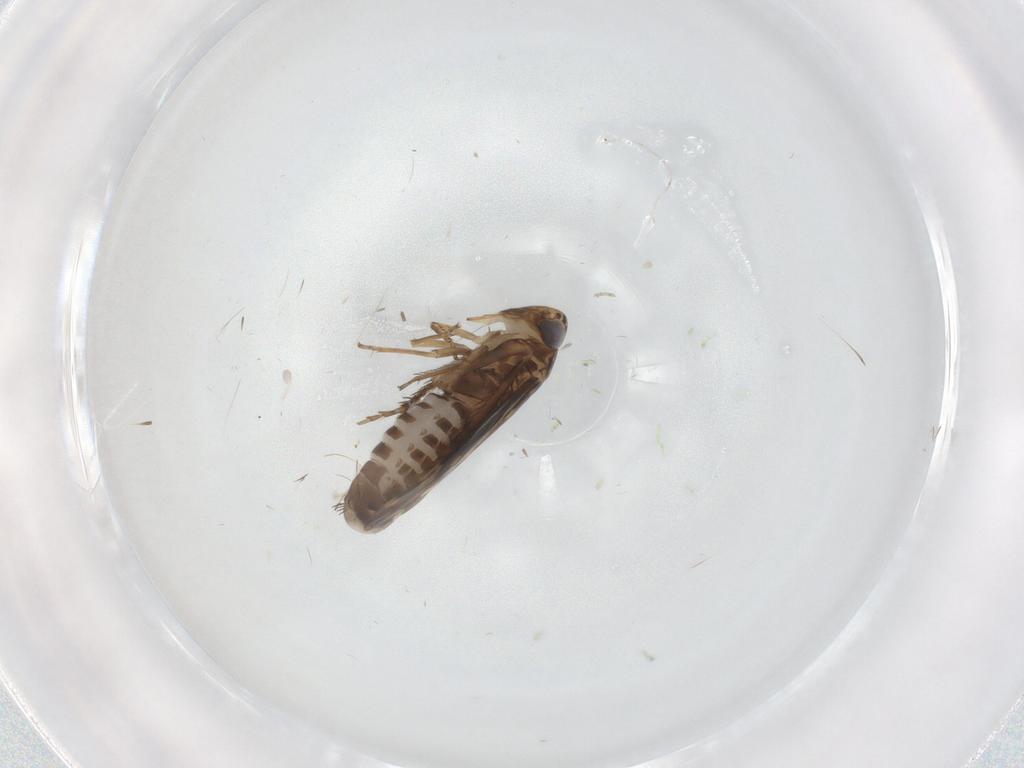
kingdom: Animalia
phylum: Arthropoda
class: Insecta
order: Hemiptera
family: Cicadellidae
